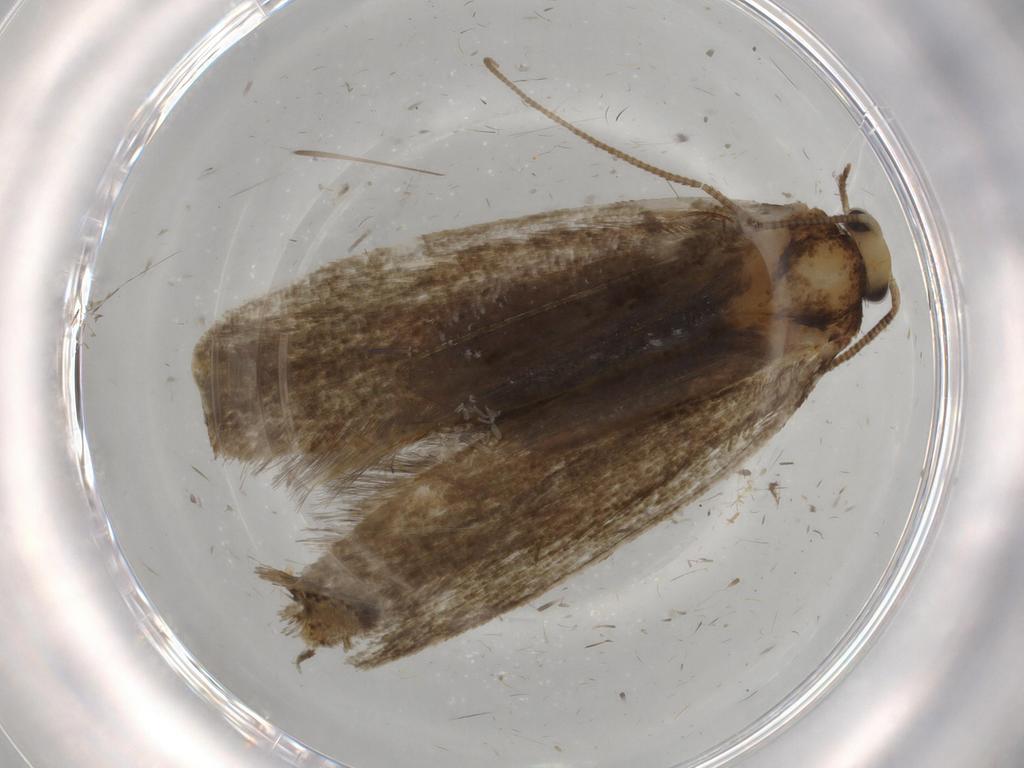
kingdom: Animalia
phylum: Arthropoda
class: Insecta
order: Lepidoptera
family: Tineidae
